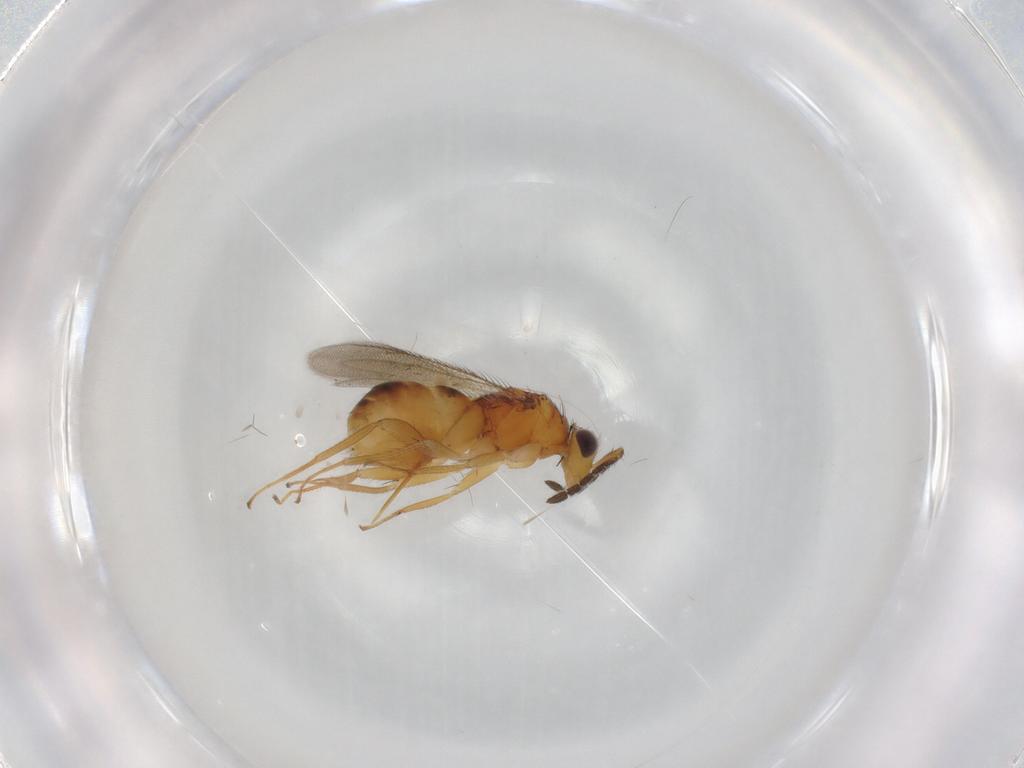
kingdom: Animalia
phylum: Arthropoda
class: Insecta
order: Hymenoptera
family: Eulophidae
